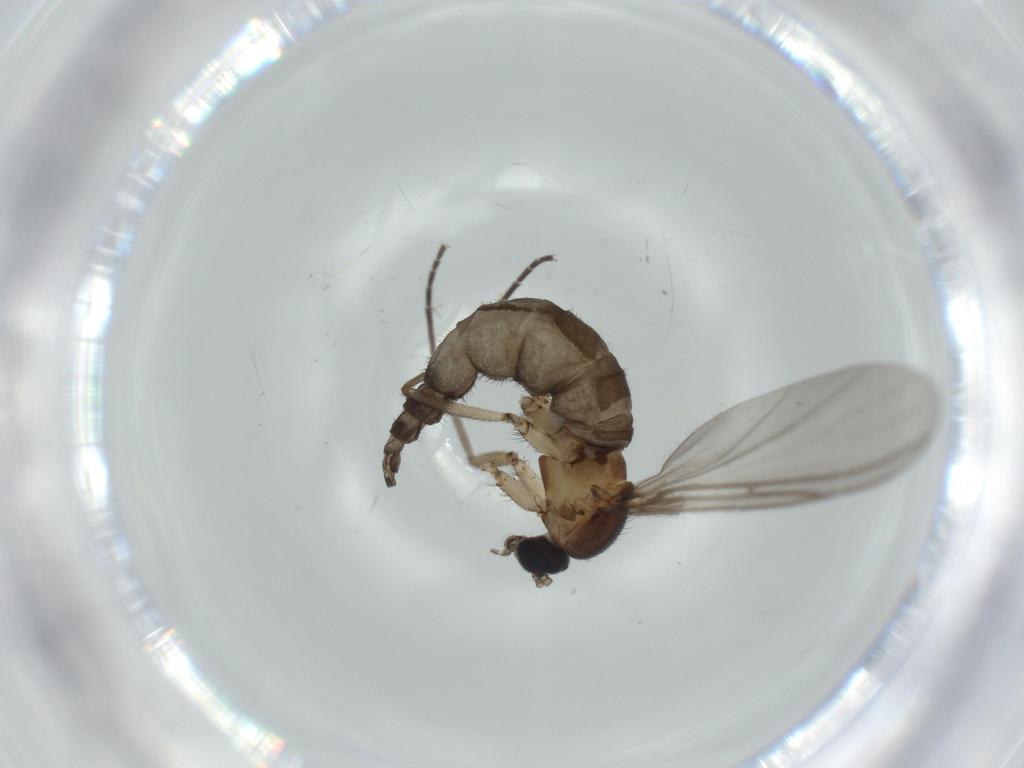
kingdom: Animalia
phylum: Arthropoda
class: Insecta
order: Diptera
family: Sciaridae
